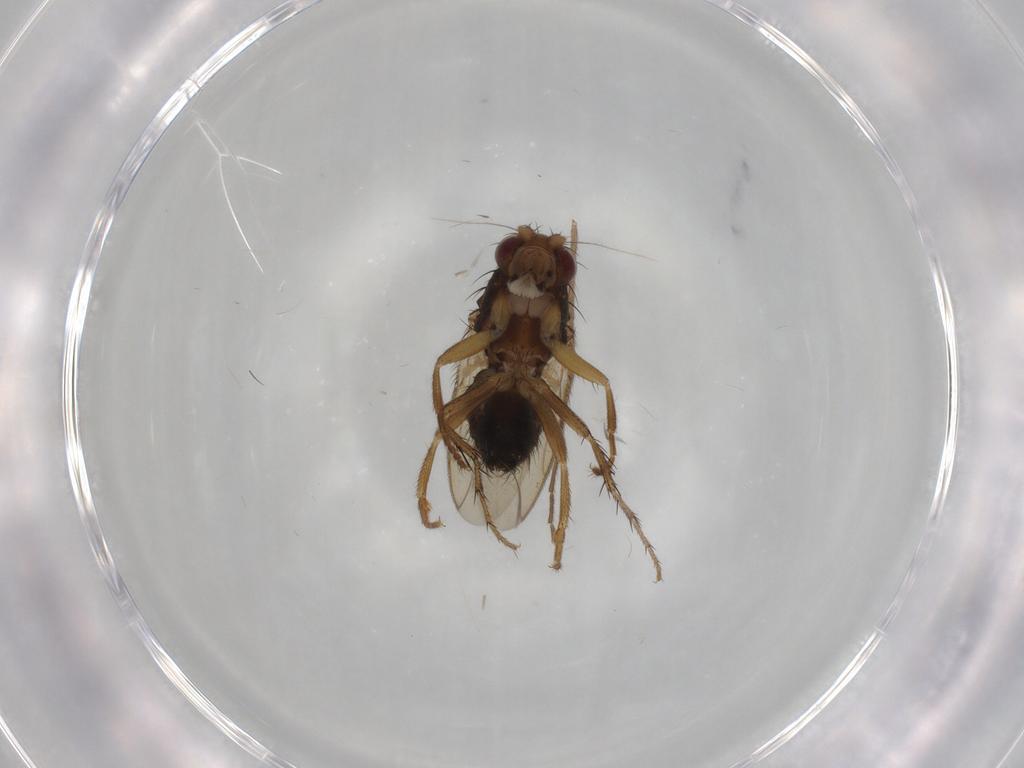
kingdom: Animalia
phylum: Arthropoda
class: Insecta
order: Diptera
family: Sphaeroceridae
